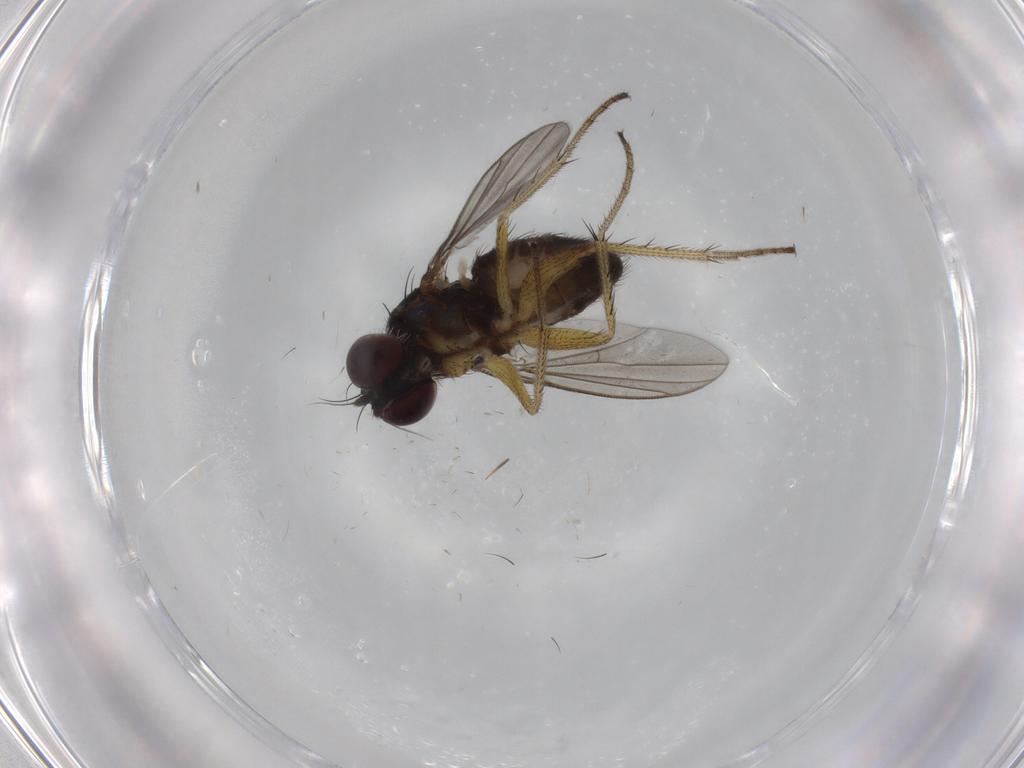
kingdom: Animalia
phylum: Arthropoda
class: Insecta
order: Diptera
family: Dolichopodidae
